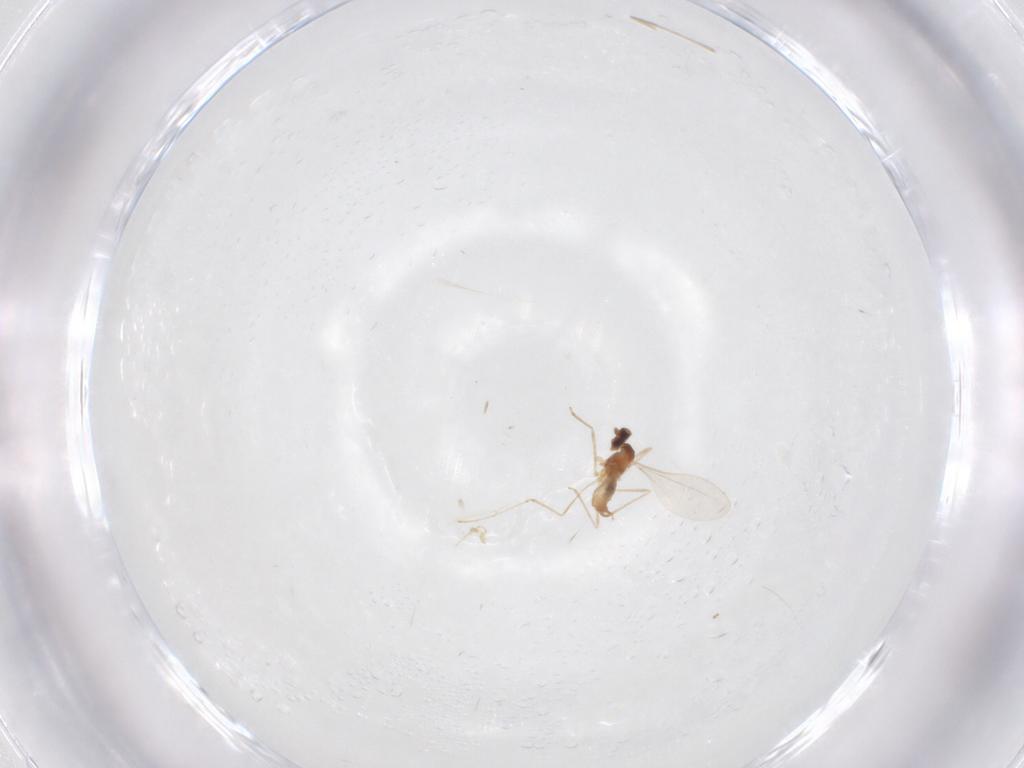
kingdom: Animalia
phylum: Arthropoda
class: Insecta
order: Diptera
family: Cecidomyiidae
